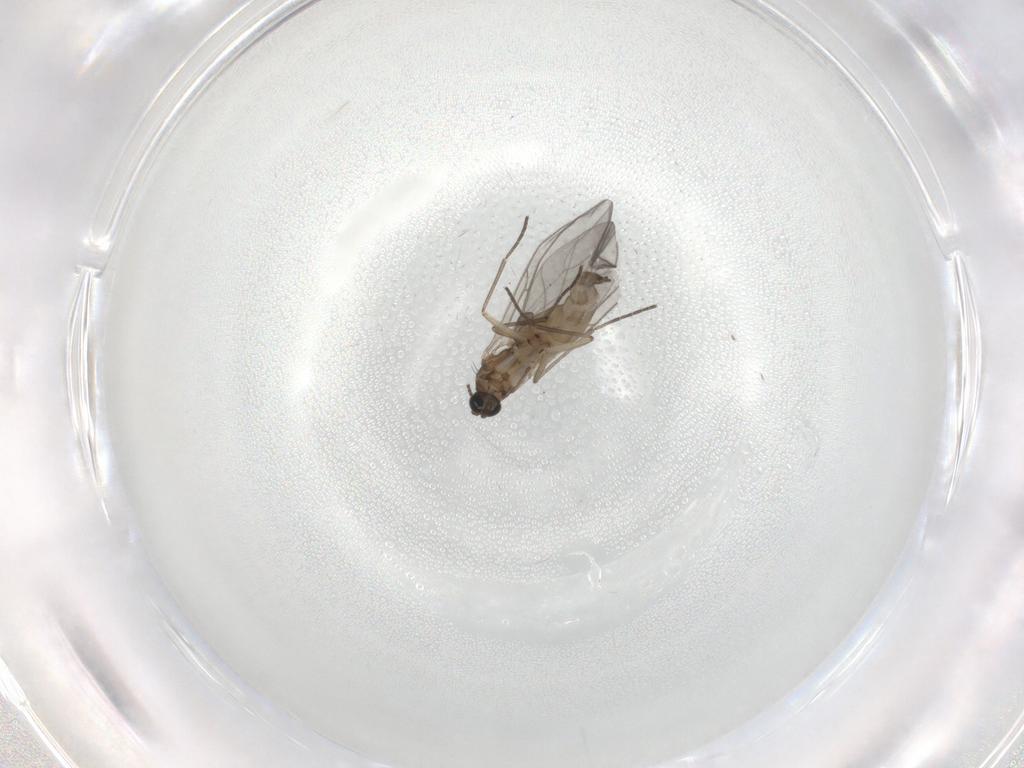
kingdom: Animalia
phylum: Arthropoda
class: Insecta
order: Diptera
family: Sciaridae
